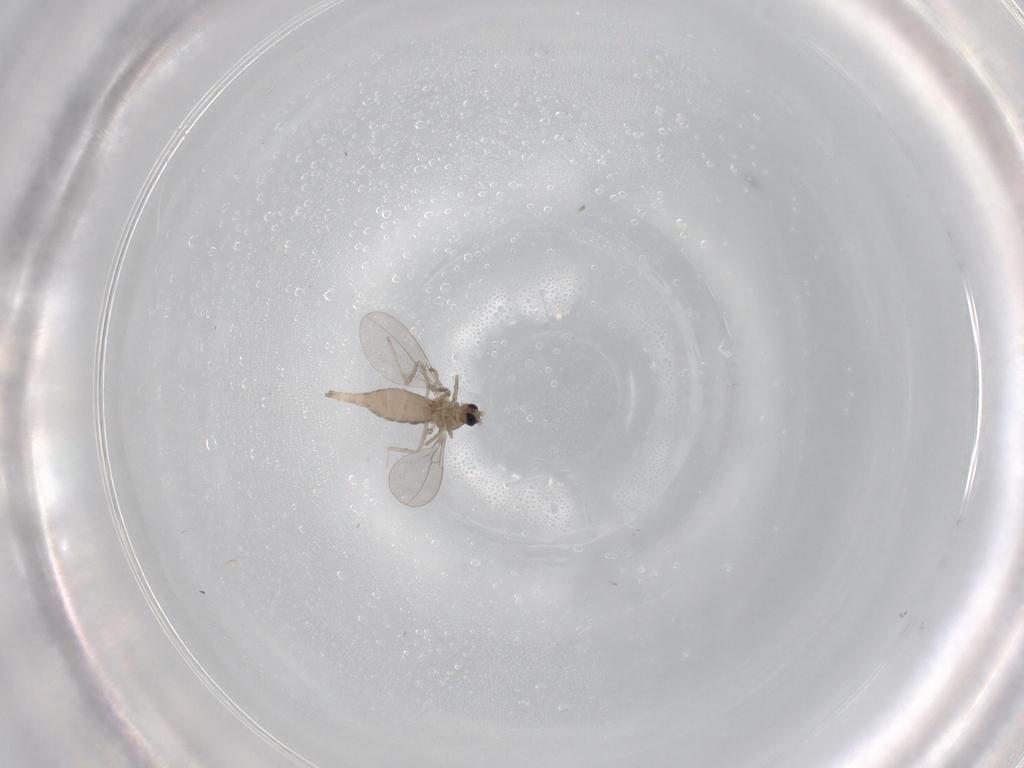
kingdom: Animalia
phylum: Arthropoda
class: Insecta
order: Diptera
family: Cecidomyiidae
